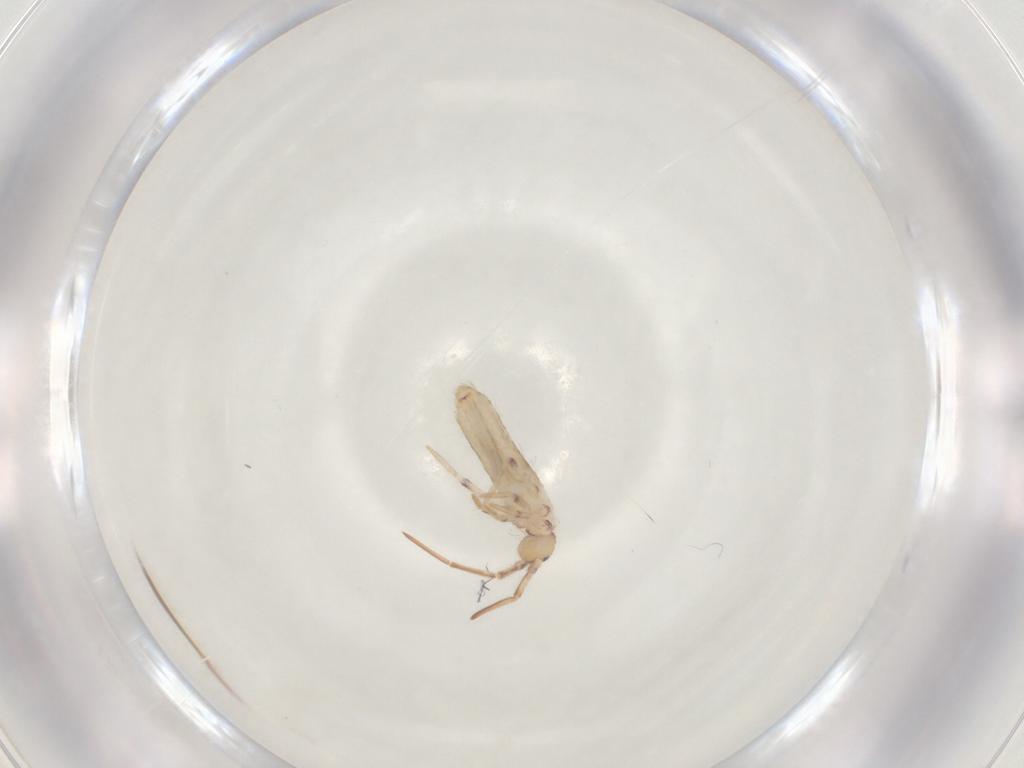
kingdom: Animalia
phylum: Arthropoda
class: Collembola
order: Entomobryomorpha
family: Entomobryidae
